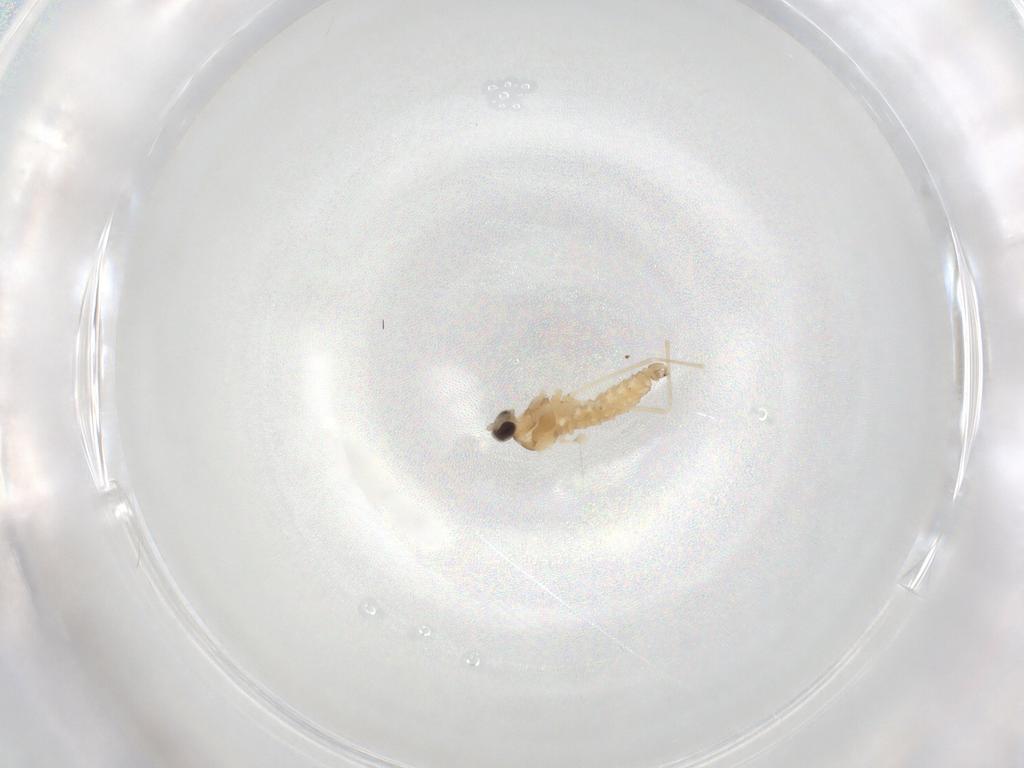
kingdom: Animalia
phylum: Arthropoda
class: Insecta
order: Diptera
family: Cecidomyiidae
